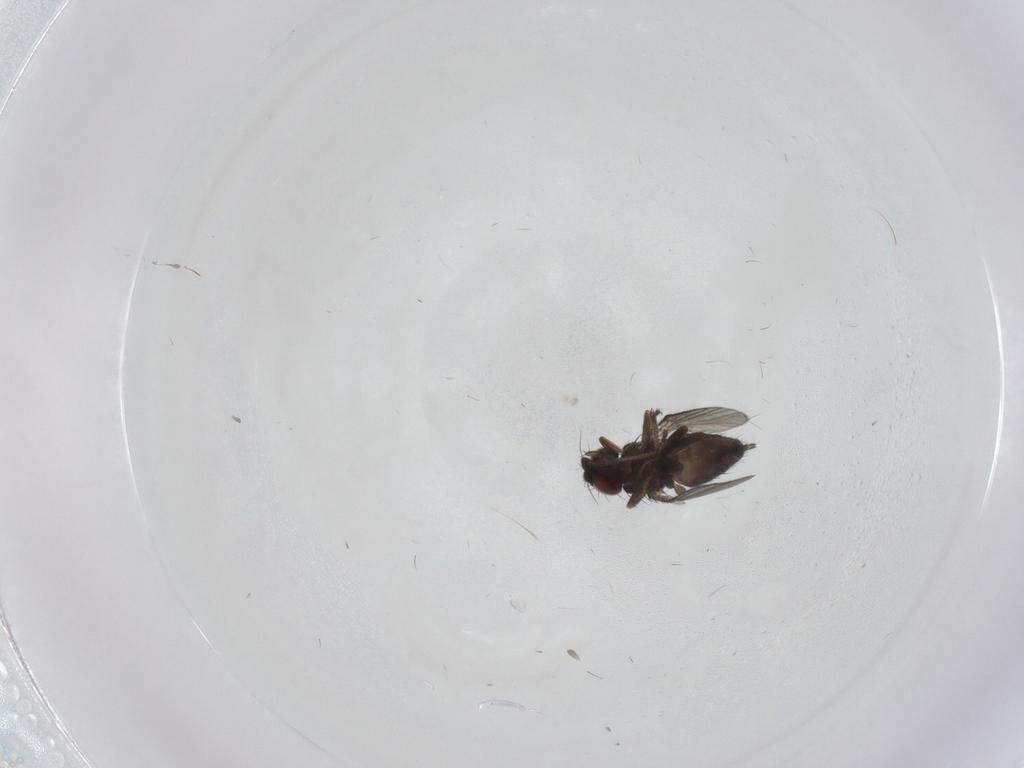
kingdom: Animalia
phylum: Arthropoda
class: Insecta
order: Diptera
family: Milichiidae
